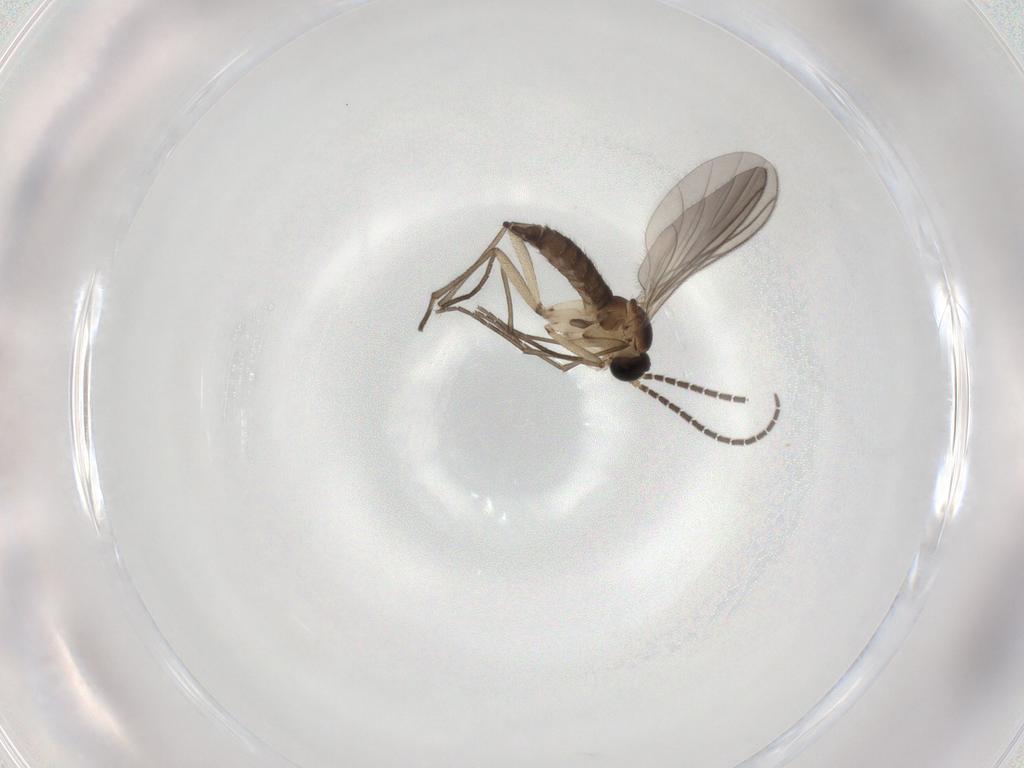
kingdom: Animalia
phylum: Arthropoda
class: Insecta
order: Diptera
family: Sciaridae
